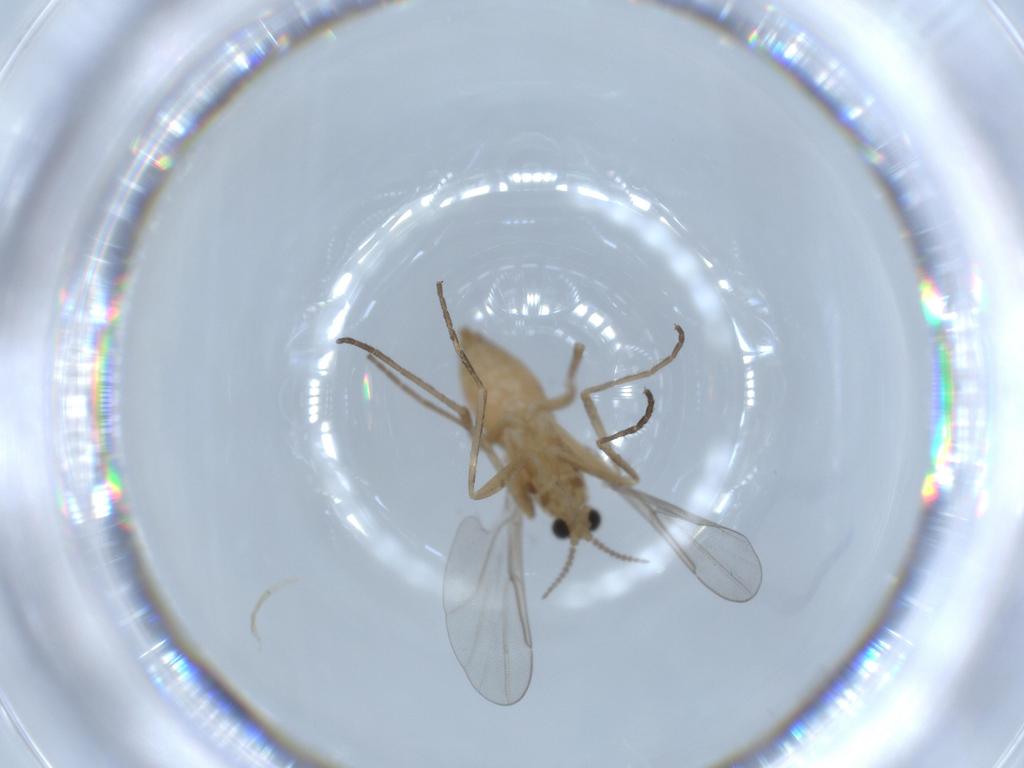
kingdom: Animalia
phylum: Arthropoda
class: Insecta
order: Diptera
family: Cecidomyiidae
